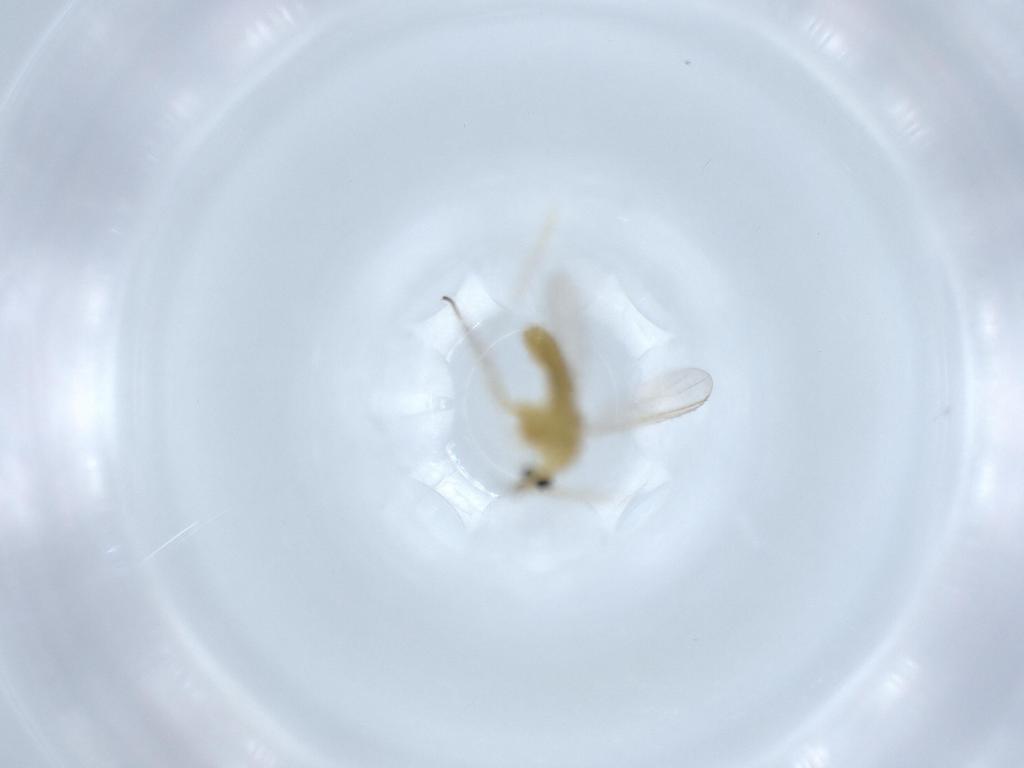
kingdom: Animalia
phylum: Arthropoda
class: Insecta
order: Diptera
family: Chironomidae
